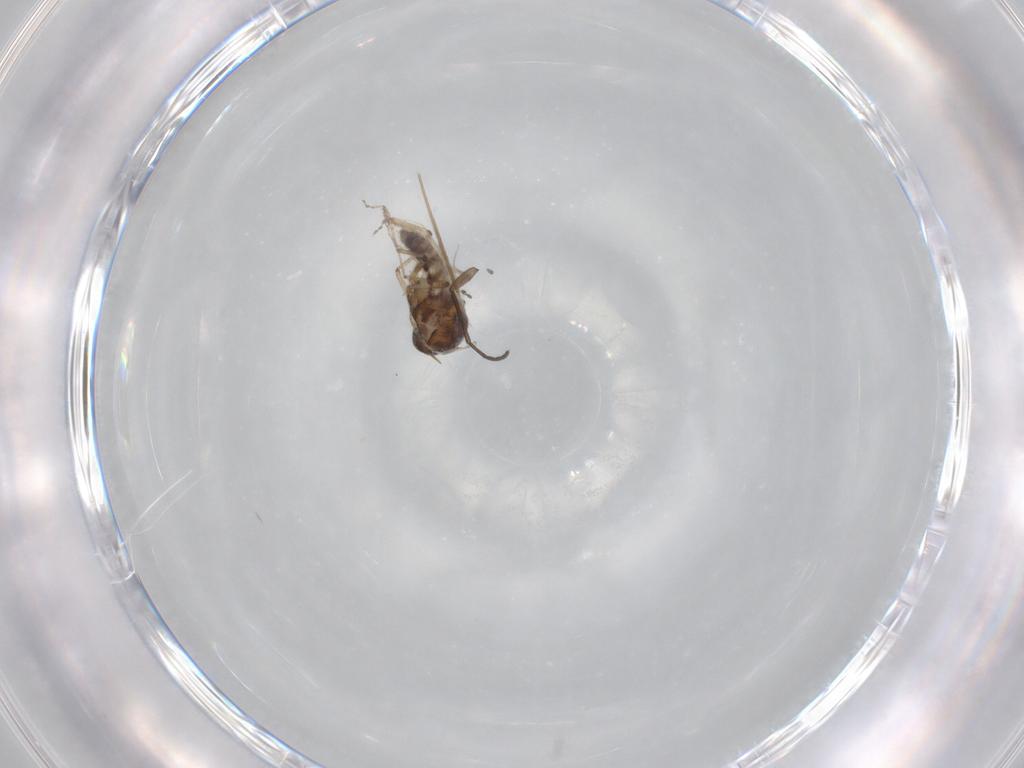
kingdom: Animalia
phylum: Arthropoda
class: Insecta
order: Diptera
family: Ceratopogonidae
